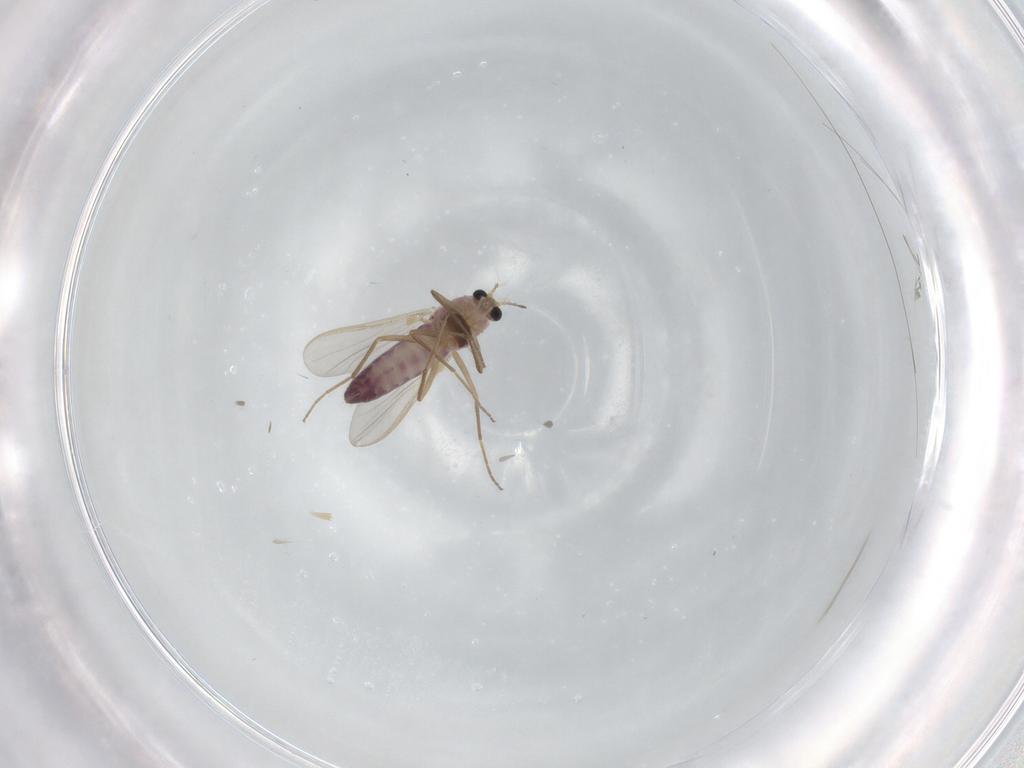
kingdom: Animalia
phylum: Arthropoda
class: Insecta
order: Diptera
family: Chironomidae
